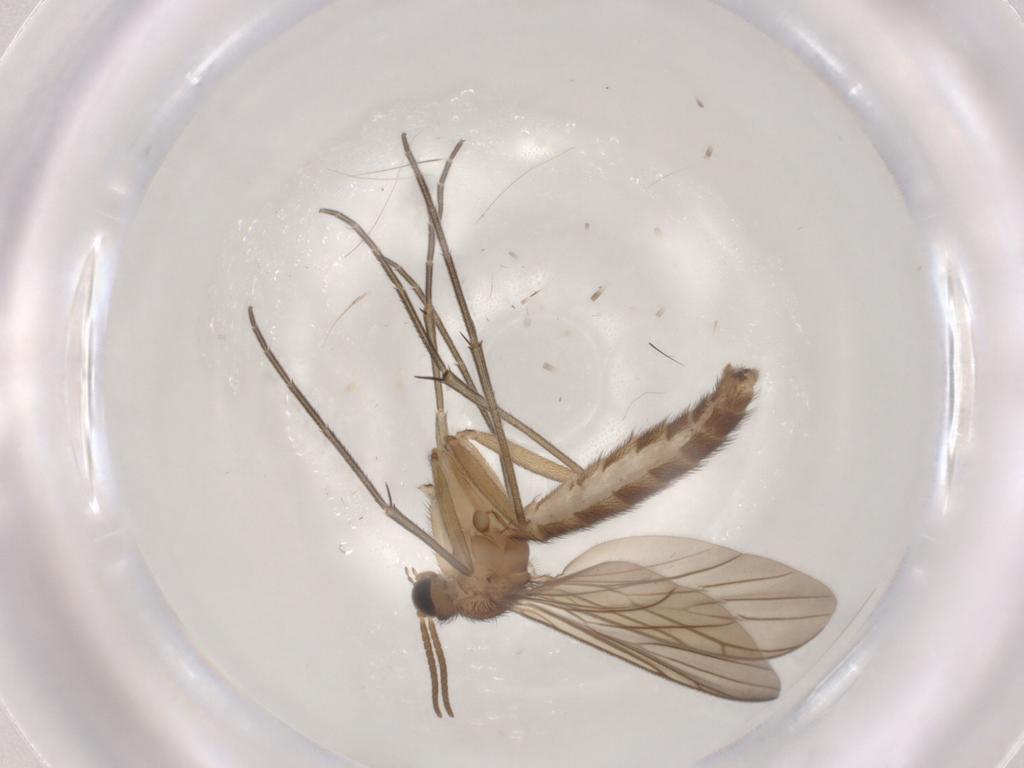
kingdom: Animalia
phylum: Arthropoda
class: Insecta
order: Diptera
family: Keroplatidae
